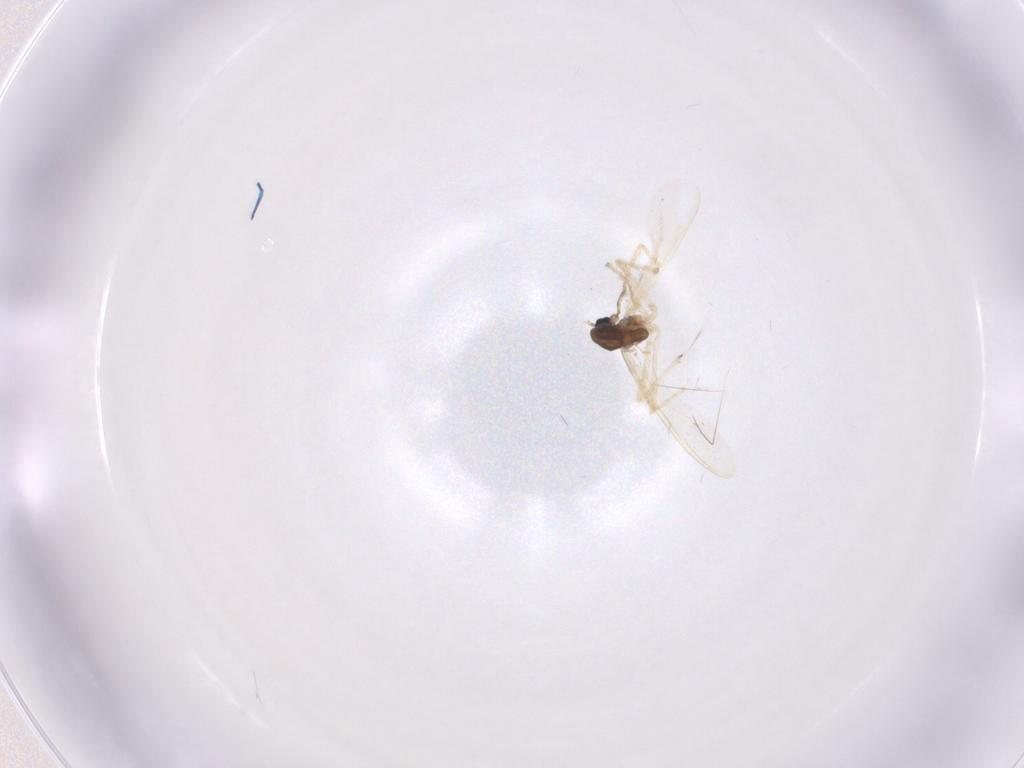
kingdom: Animalia
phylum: Arthropoda
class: Insecta
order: Diptera
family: Chironomidae
